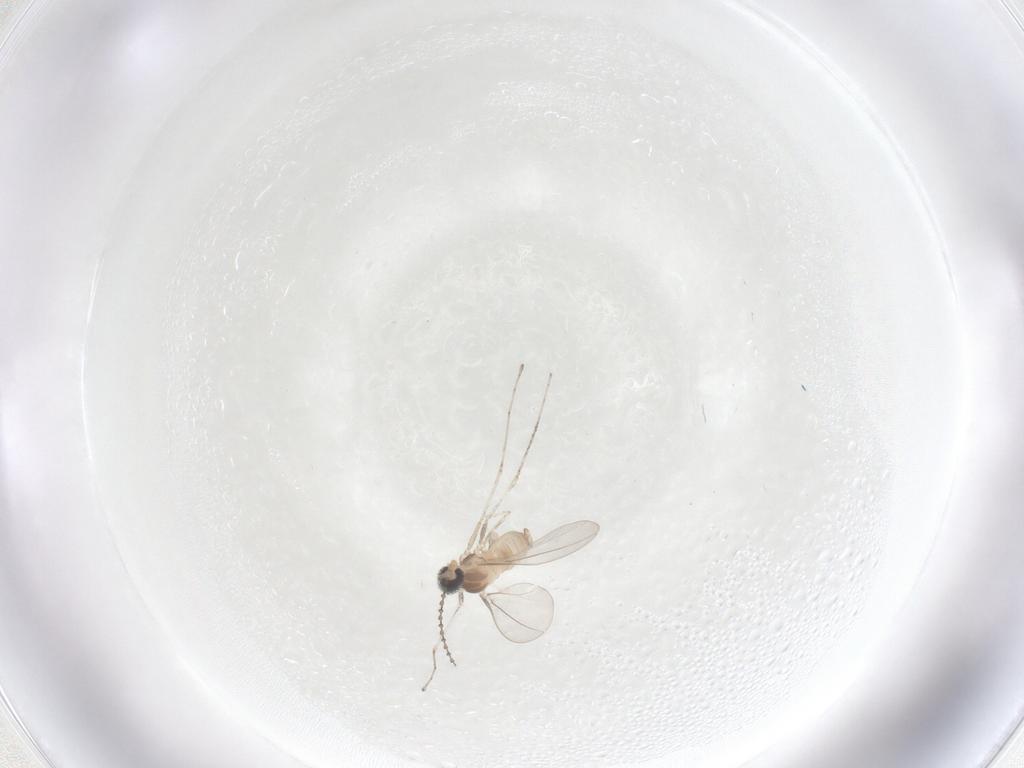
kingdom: Animalia
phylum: Arthropoda
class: Insecta
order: Diptera
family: Cecidomyiidae
